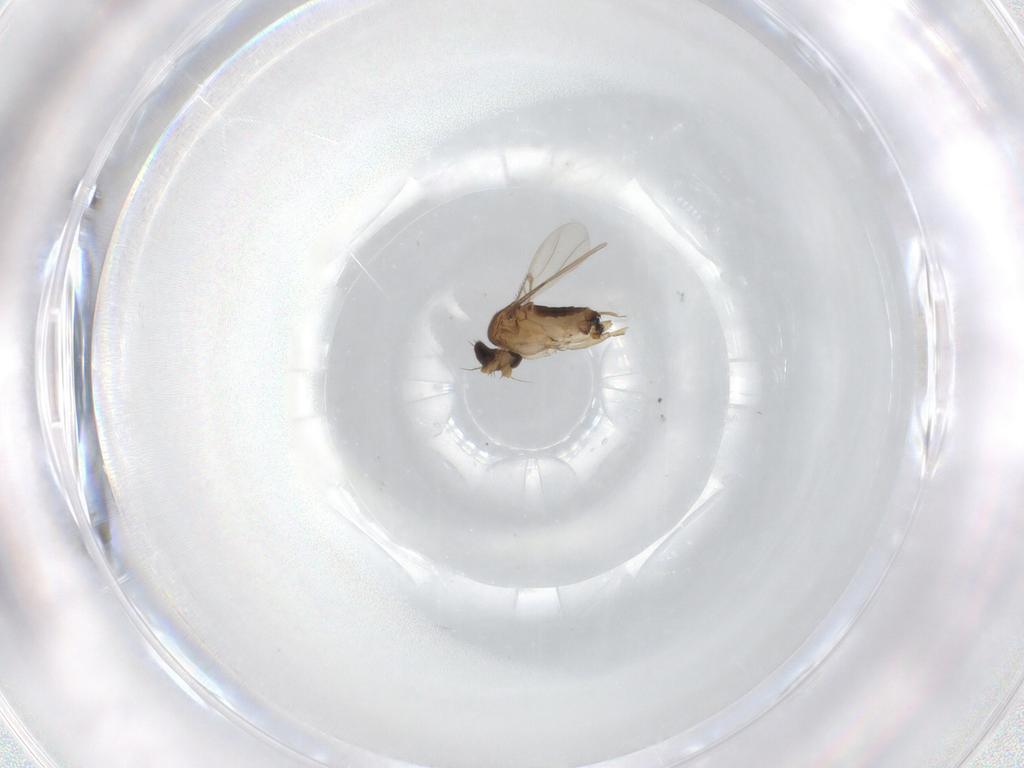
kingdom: Animalia
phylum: Arthropoda
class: Insecta
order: Diptera
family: Phoridae
